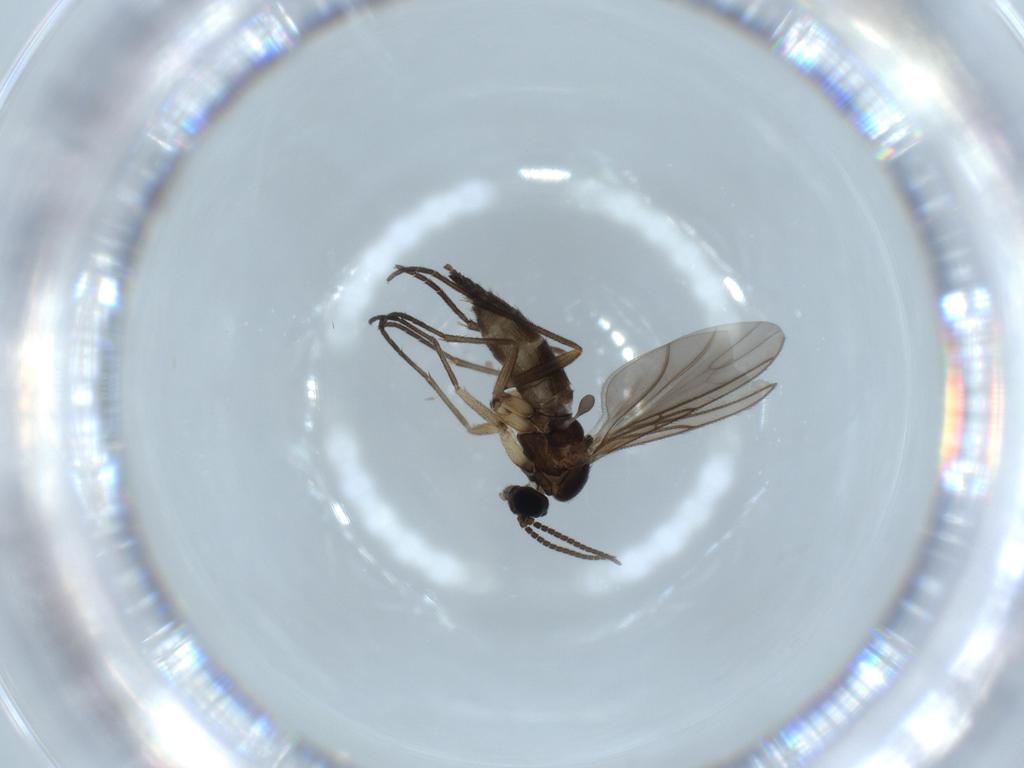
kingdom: Animalia
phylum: Arthropoda
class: Insecta
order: Diptera
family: Sciaridae
